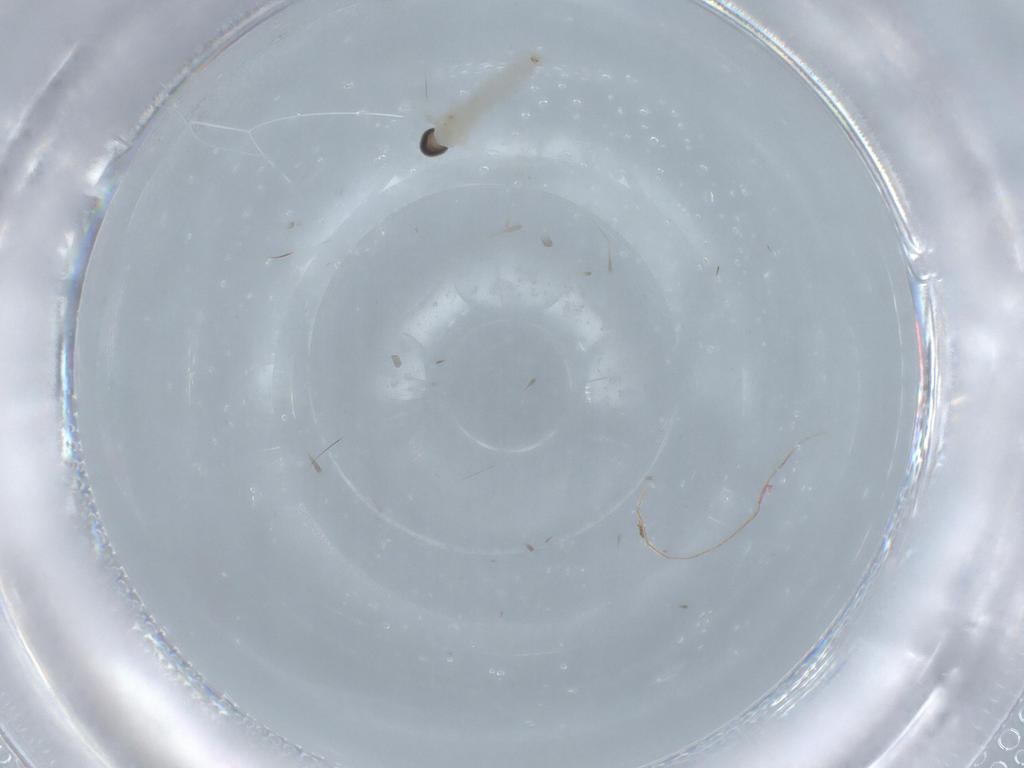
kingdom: Animalia
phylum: Arthropoda
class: Insecta
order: Diptera
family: Cecidomyiidae
